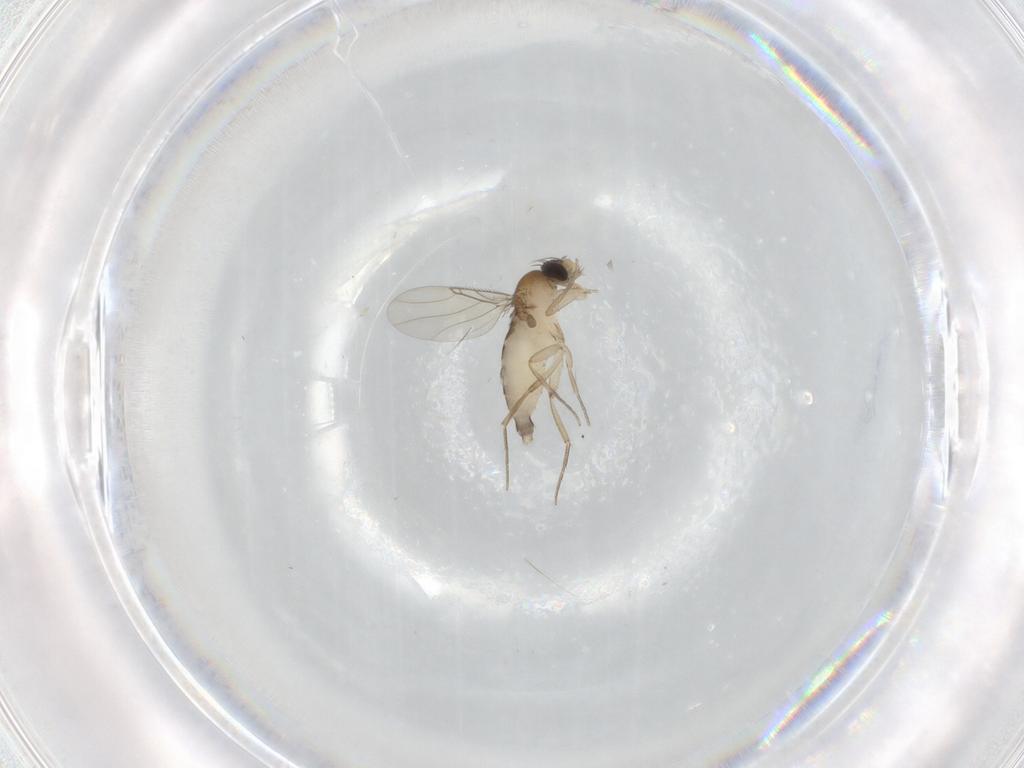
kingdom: Animalia
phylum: Arthropoda
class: Insecta
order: Diptera
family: Phoridae
